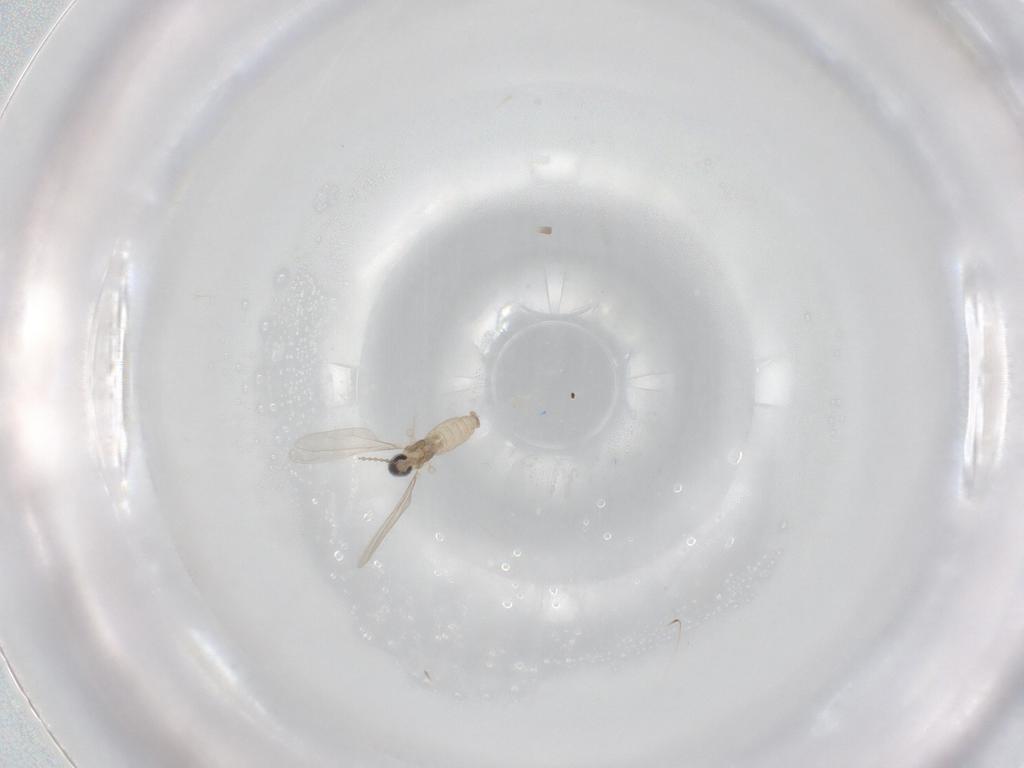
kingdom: Animalia
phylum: Arthropoda
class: Insecta
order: Diptera
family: Cecidomyiidae
